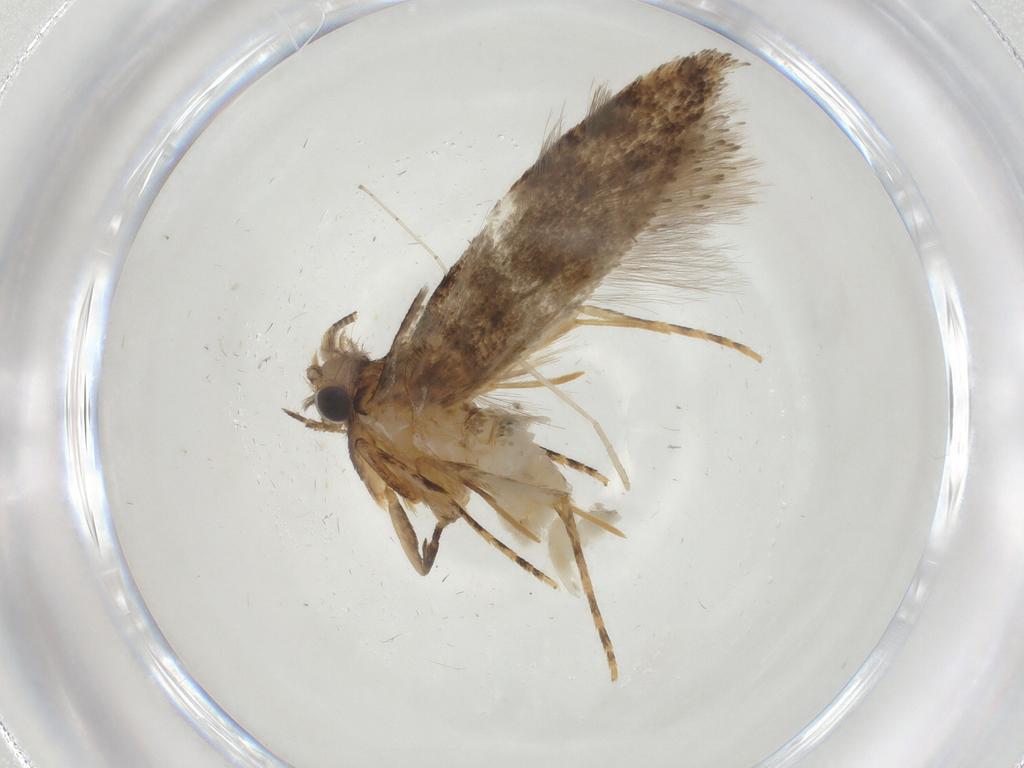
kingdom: Animalia
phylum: Arthropoda
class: Insecta
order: Lepidoptera
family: Tineidae
